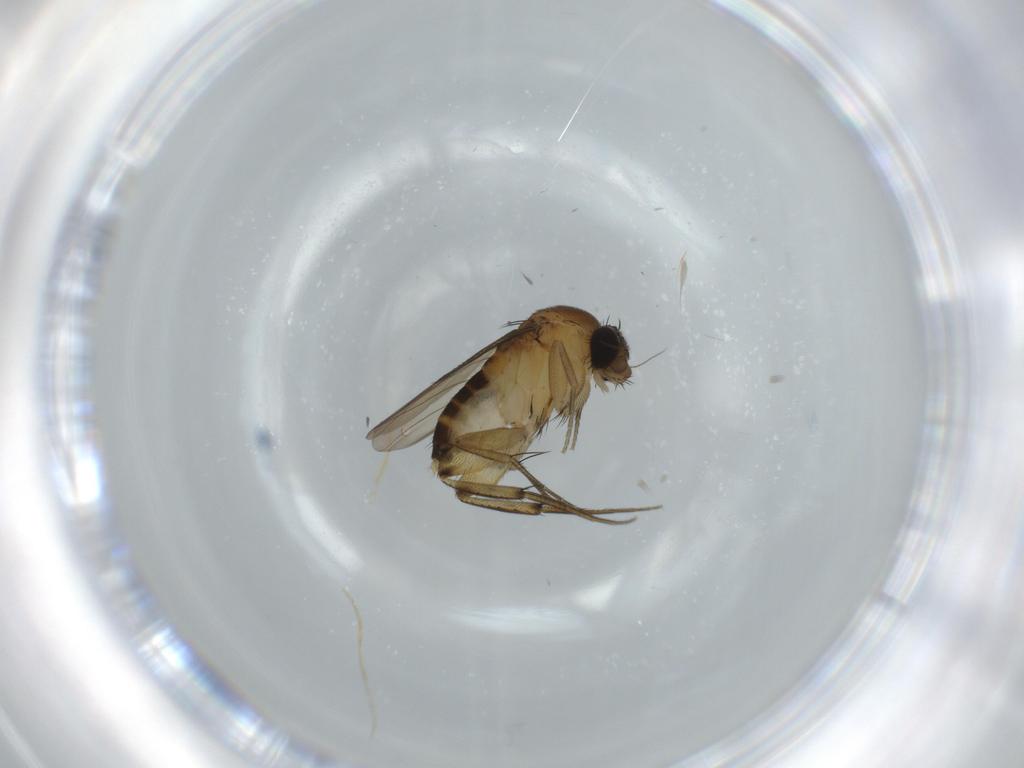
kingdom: Animalia
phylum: Arthropoda
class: Insecta
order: Diptera
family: Phoridae
